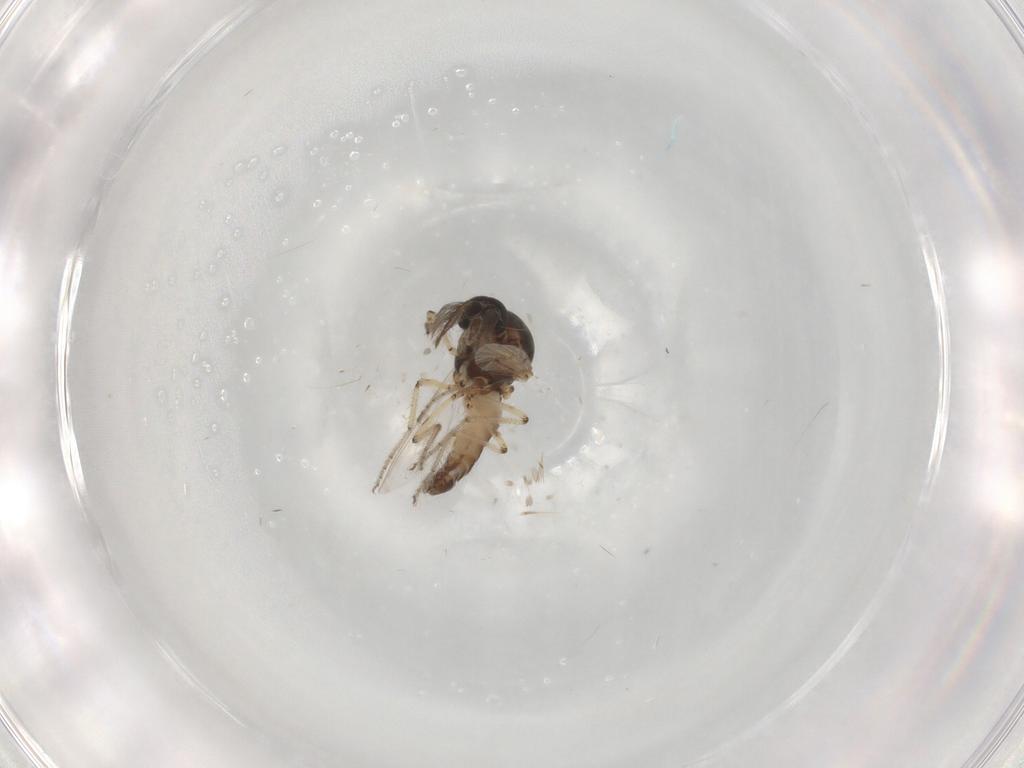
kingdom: Animalia
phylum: Arthropoda
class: Insecta
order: Diptera
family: Ceratopogonidae
